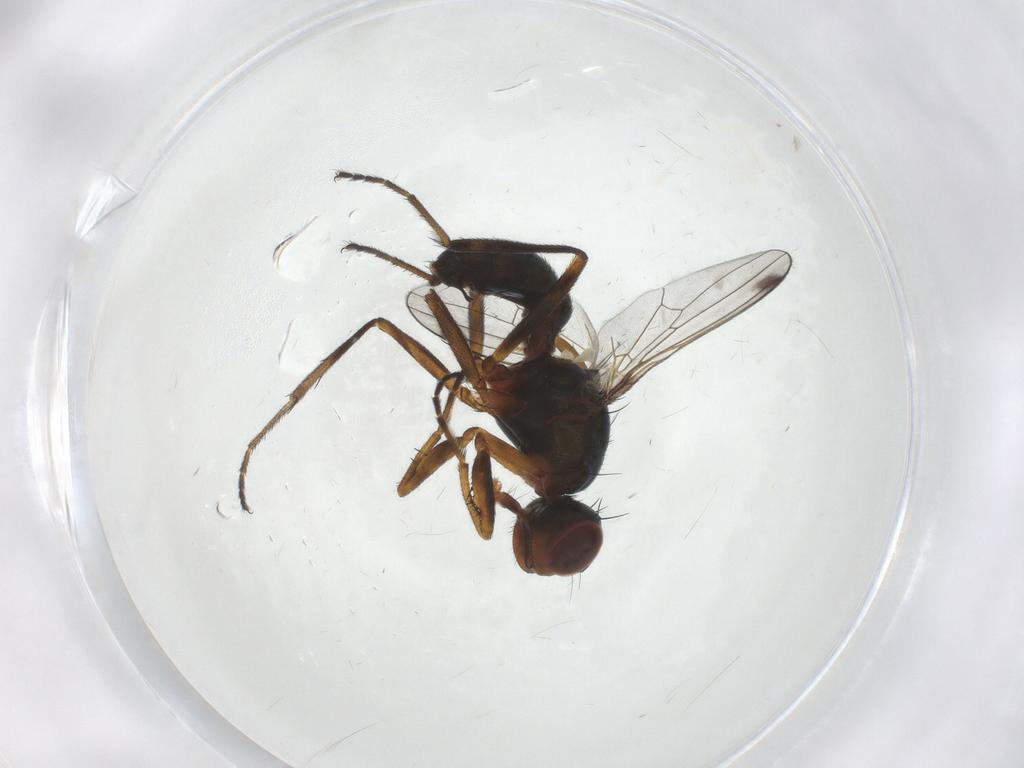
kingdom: Animalia
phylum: Arthropoda
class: Insecta
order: Diptera
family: Sepsidae
